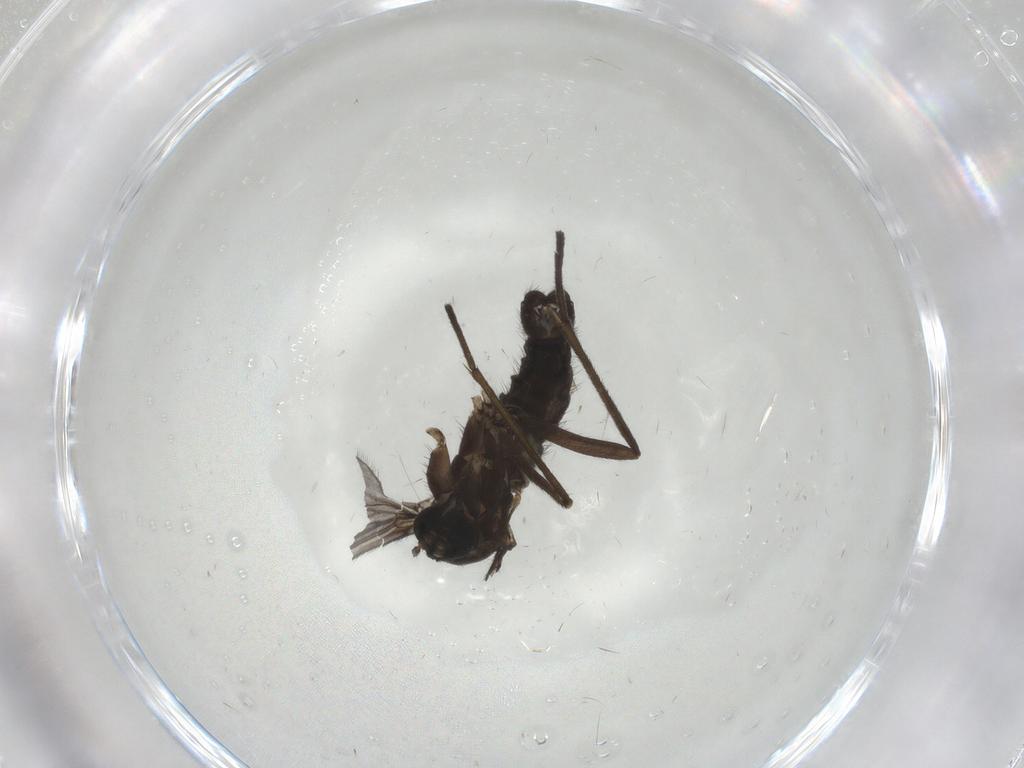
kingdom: Animalia
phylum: Arthropoda
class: Insecta
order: Diptera
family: Sciaridae
